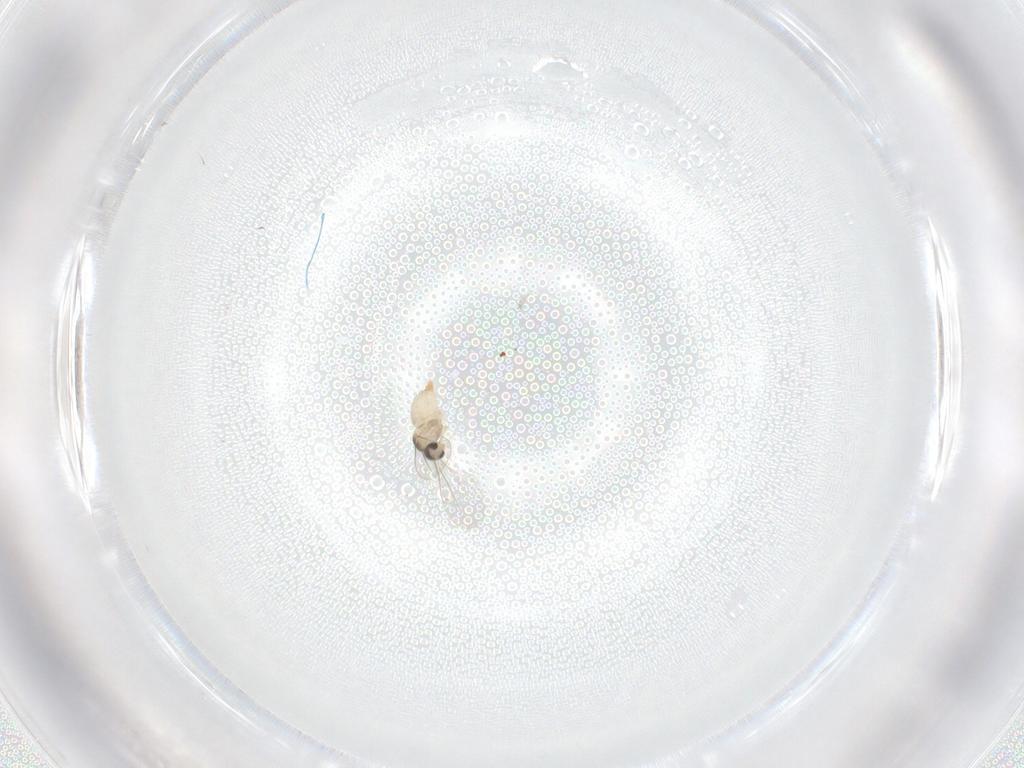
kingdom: Animalia
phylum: Arthropoda
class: Insecta
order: Diptera
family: Cecidomyiidae
